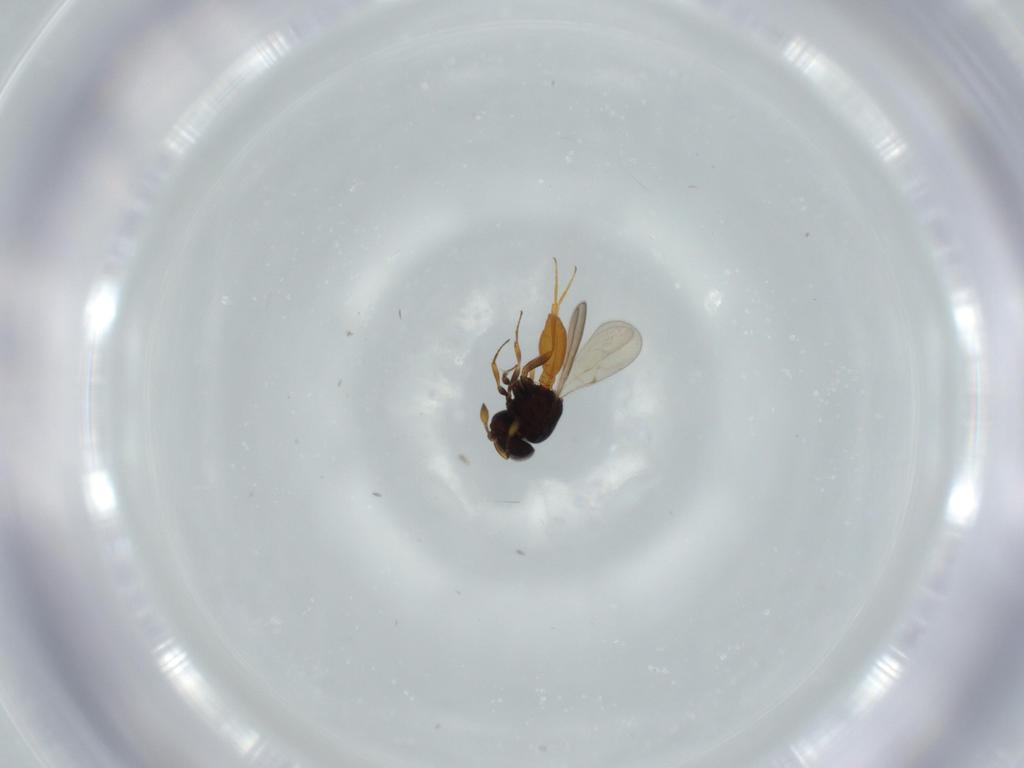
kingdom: Animalia
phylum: Arthropoda
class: Insecta
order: Hymenoptera
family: Scelionidae
